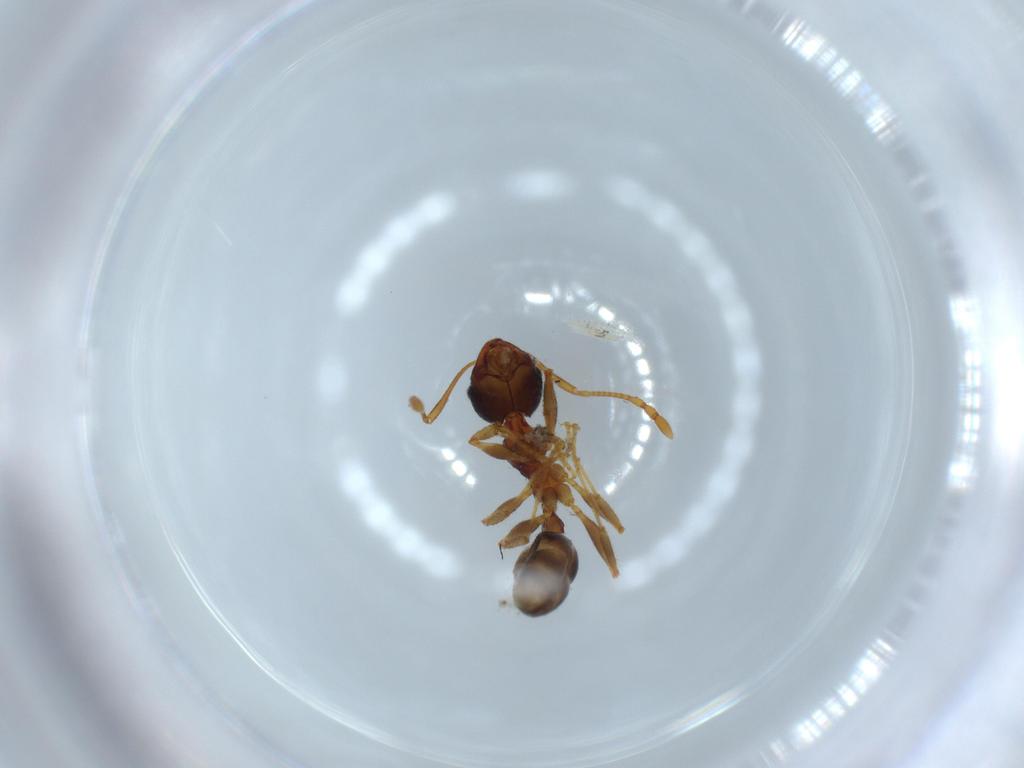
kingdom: Animalia
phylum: Arthropoda
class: Insecta
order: Hymenoptera
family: Formicidae
